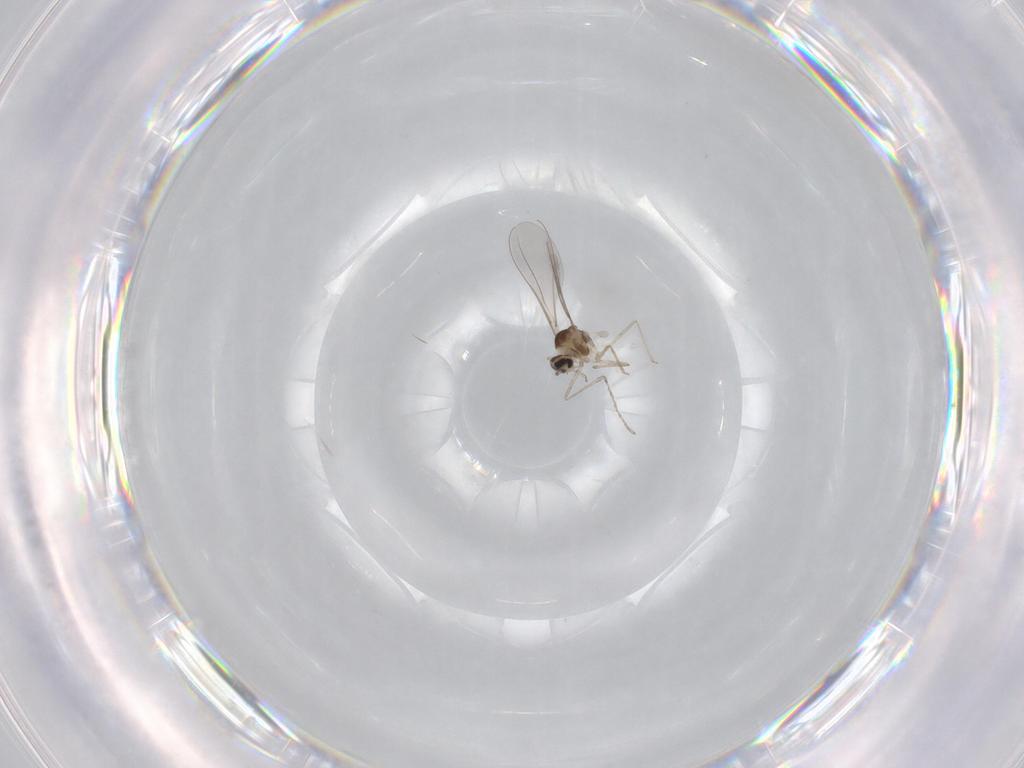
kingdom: Animalia
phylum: Arthropoda
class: Insecta
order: Diptera
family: Ceratopogonidae
